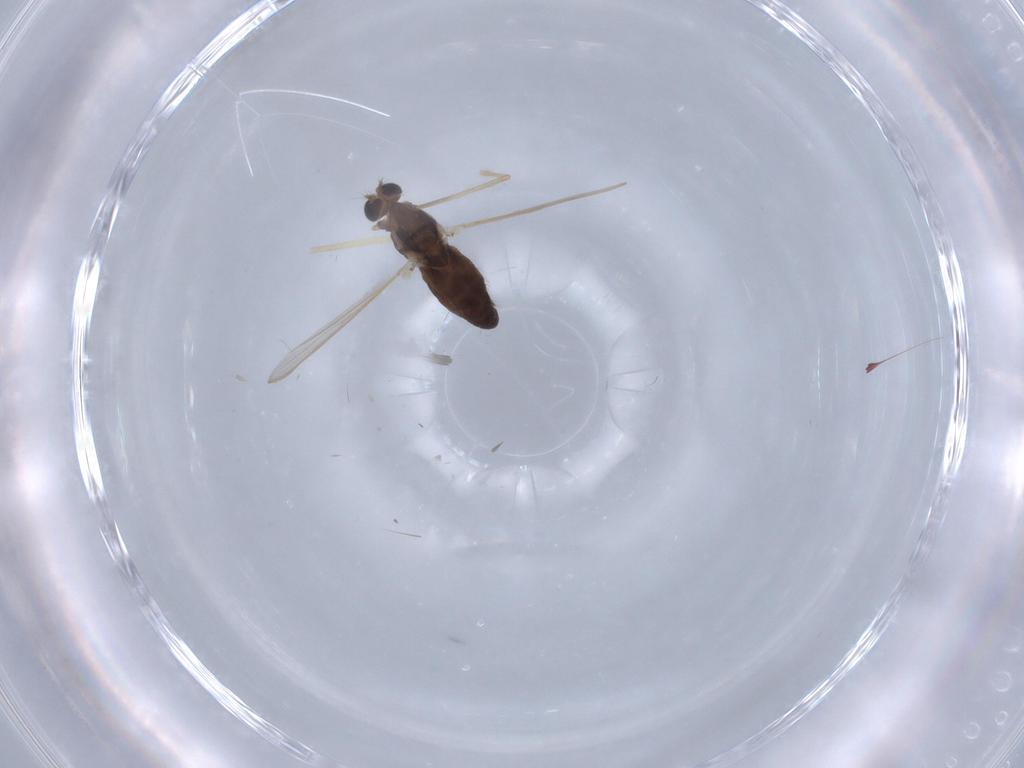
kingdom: Animalia
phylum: Arthropoda
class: Insecta
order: Diptera
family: Chironomidae
